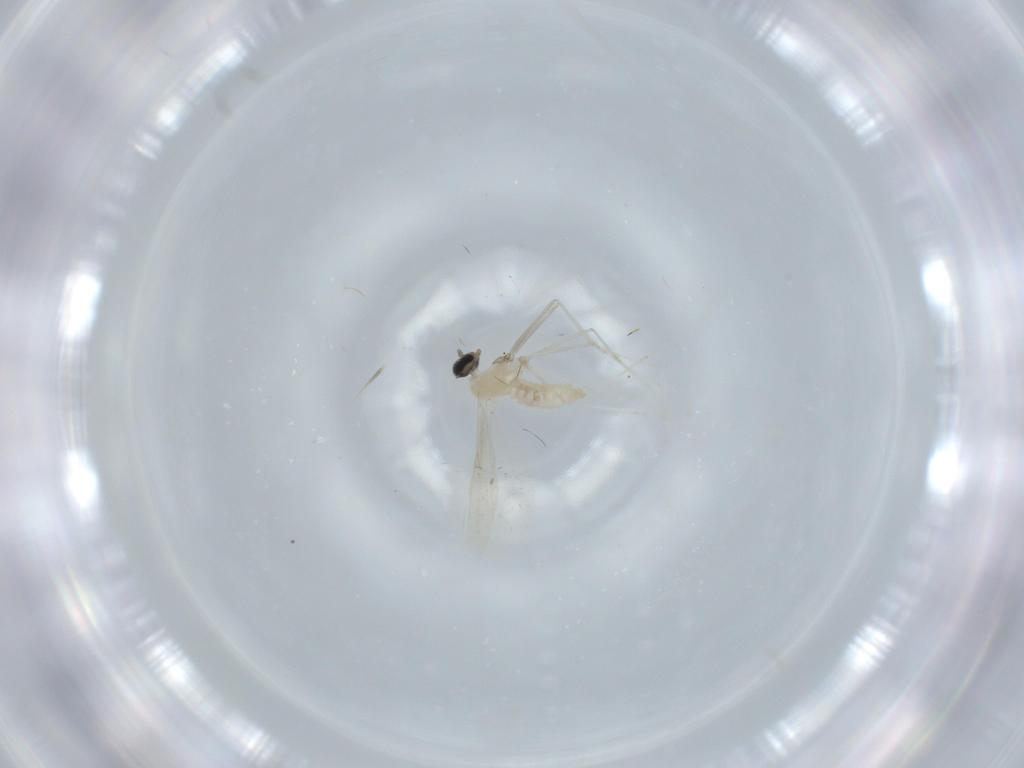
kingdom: Animalia
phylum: Arthropoda
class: Insecta
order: Diptera
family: Cecidomyiidae
